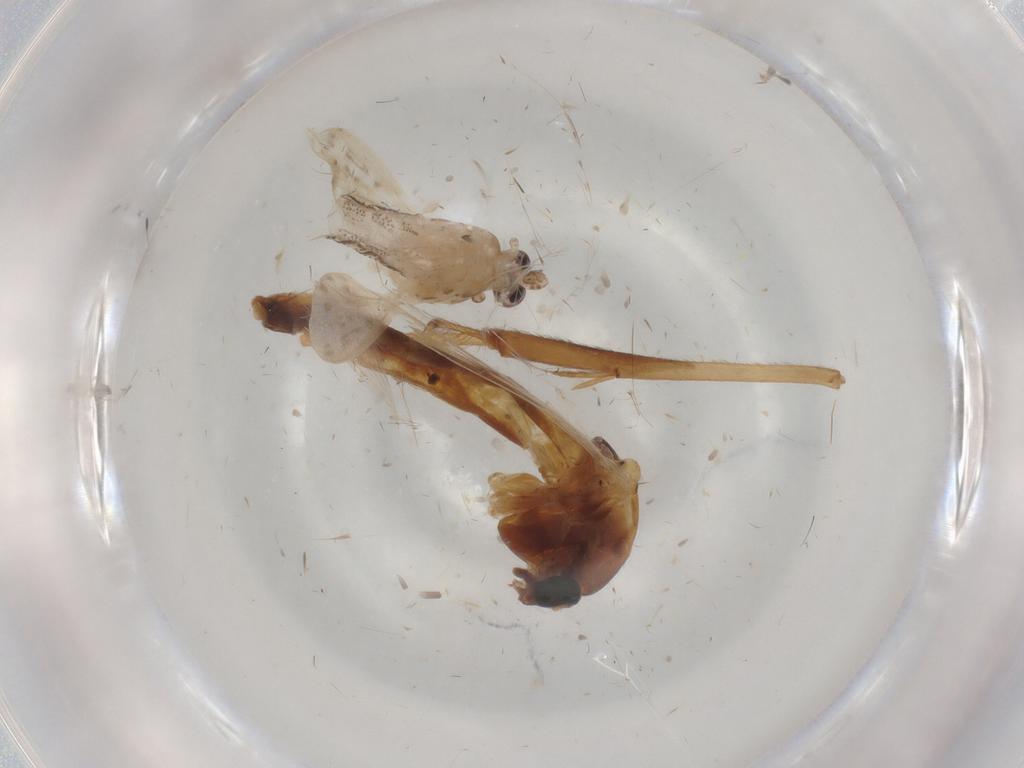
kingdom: Animalia
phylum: Arthropoda
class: Insecta
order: Diptera
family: Chaoboridae
